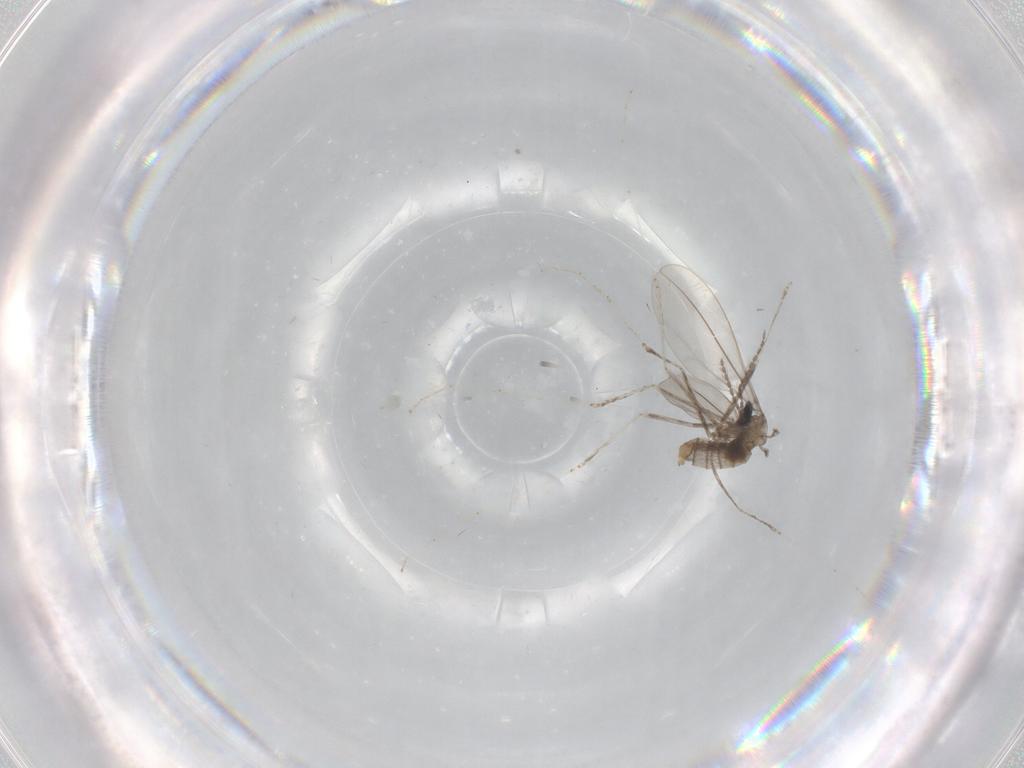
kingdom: Animalia
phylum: Arthropoda
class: Insecta
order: Diptera
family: Cecidomyiidae
